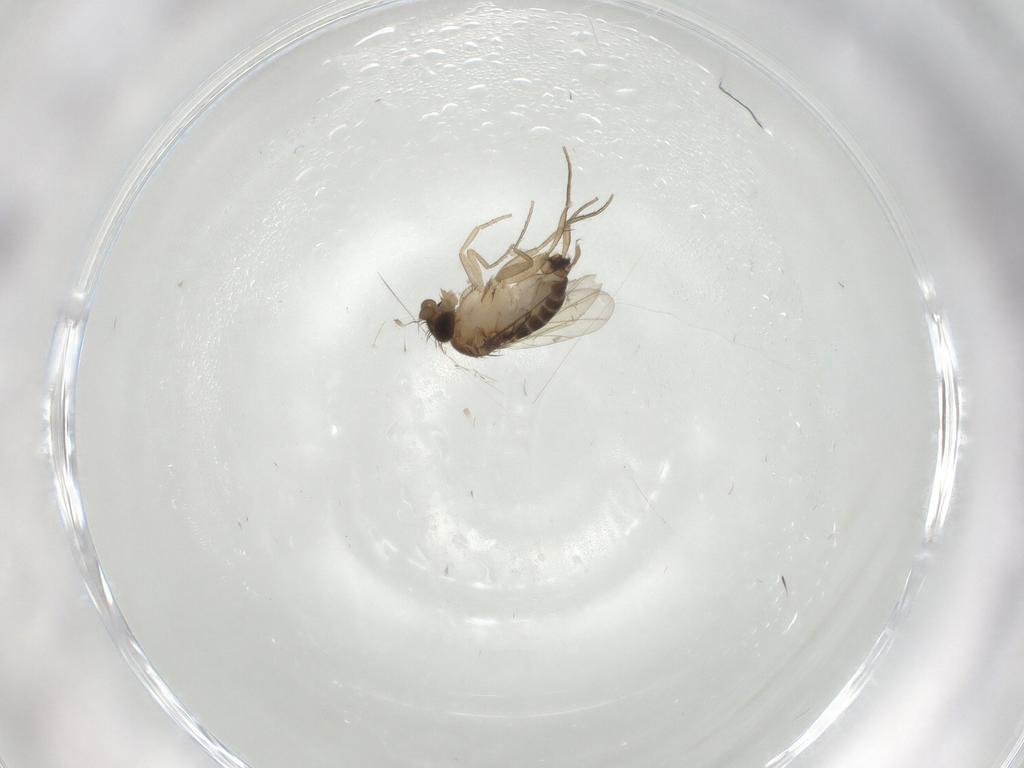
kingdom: Animalia
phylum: Arthropoda
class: Insecta
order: Diptera
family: Phoridae
